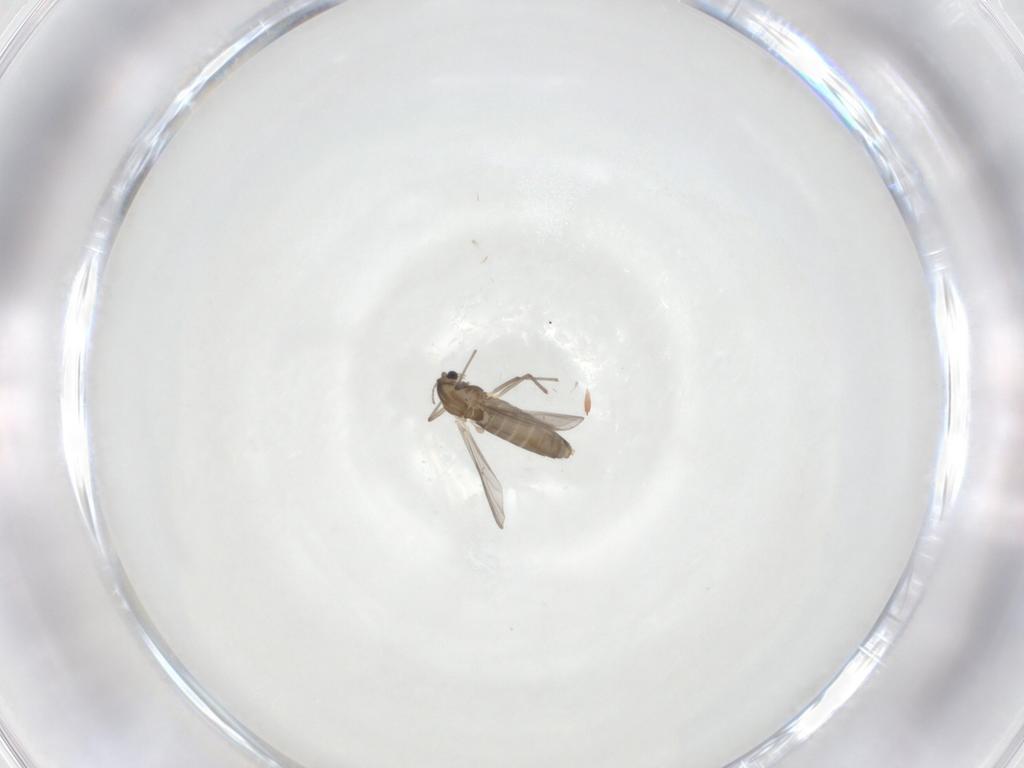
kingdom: Animalia
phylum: Arthropoda
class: Insecta
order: Diptera
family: Chironomidae
